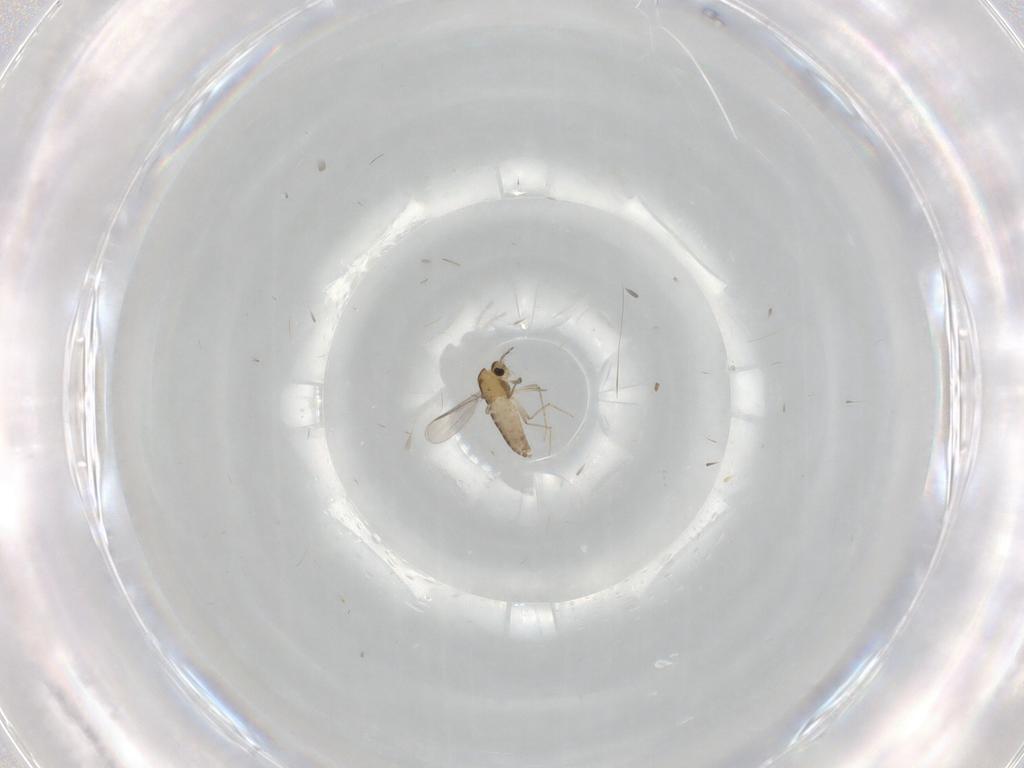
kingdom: Animalia
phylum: Arthropoda
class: Insecta
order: Diptera
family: Chironomidae
